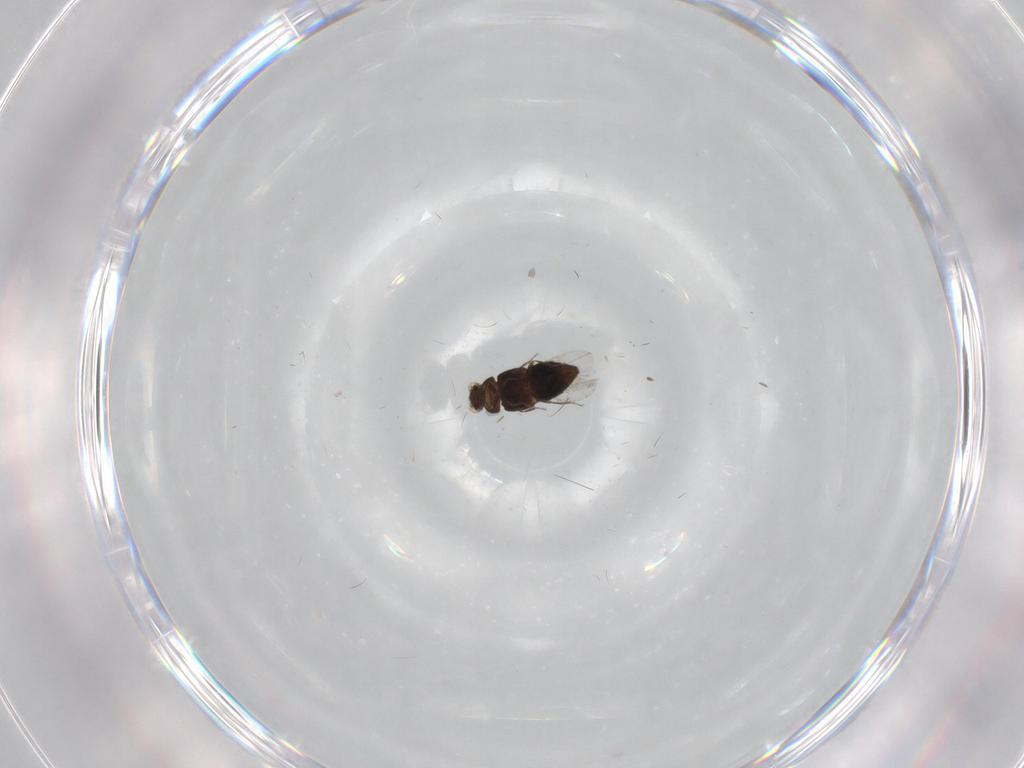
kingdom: Animalia
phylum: Arthropoda
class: Insecta
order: Coleoptera
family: Staphylinidae
